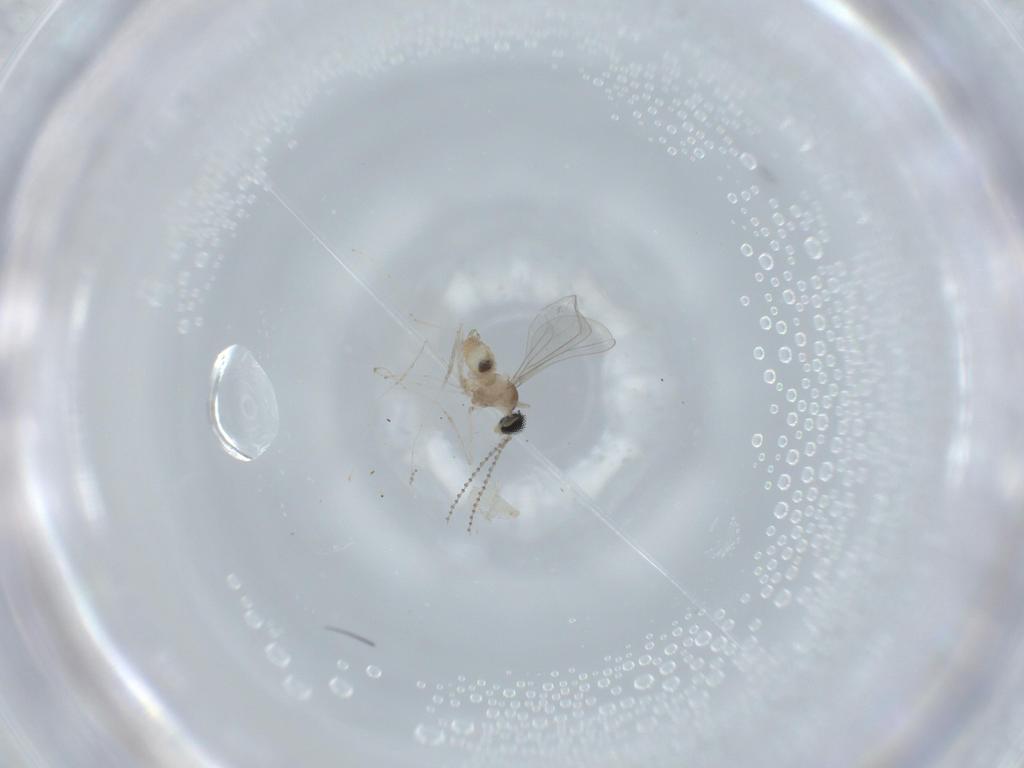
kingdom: Animalia
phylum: Arthropoda
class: Insecta
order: Diptera
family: Cecidomyiidae
